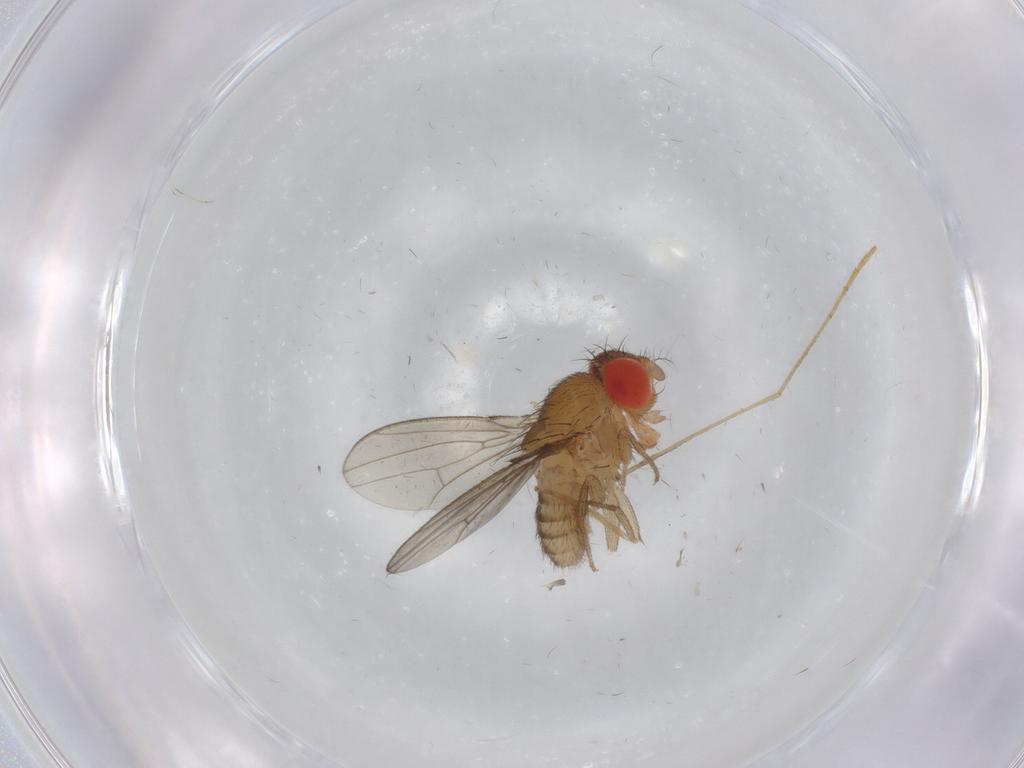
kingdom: Animalia
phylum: Arthropoda
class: Insecta
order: Diptera
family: Drosophilidae
